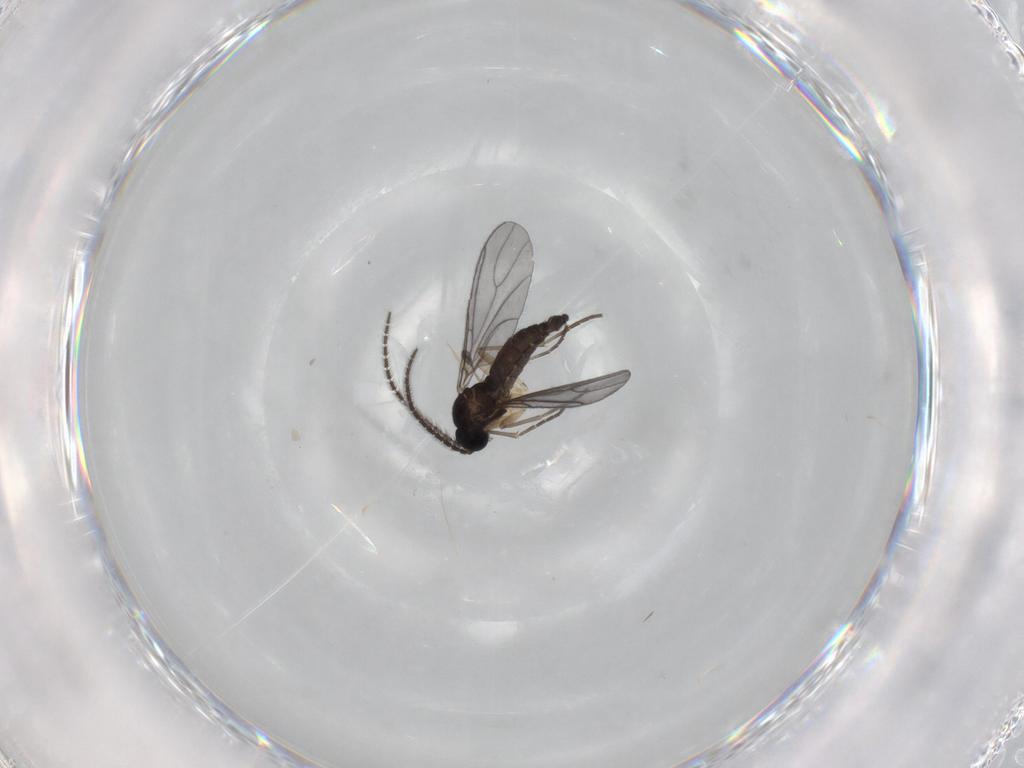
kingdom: Animalia
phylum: Arthropoda
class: Insecta
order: Diptera
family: Sciaridae
